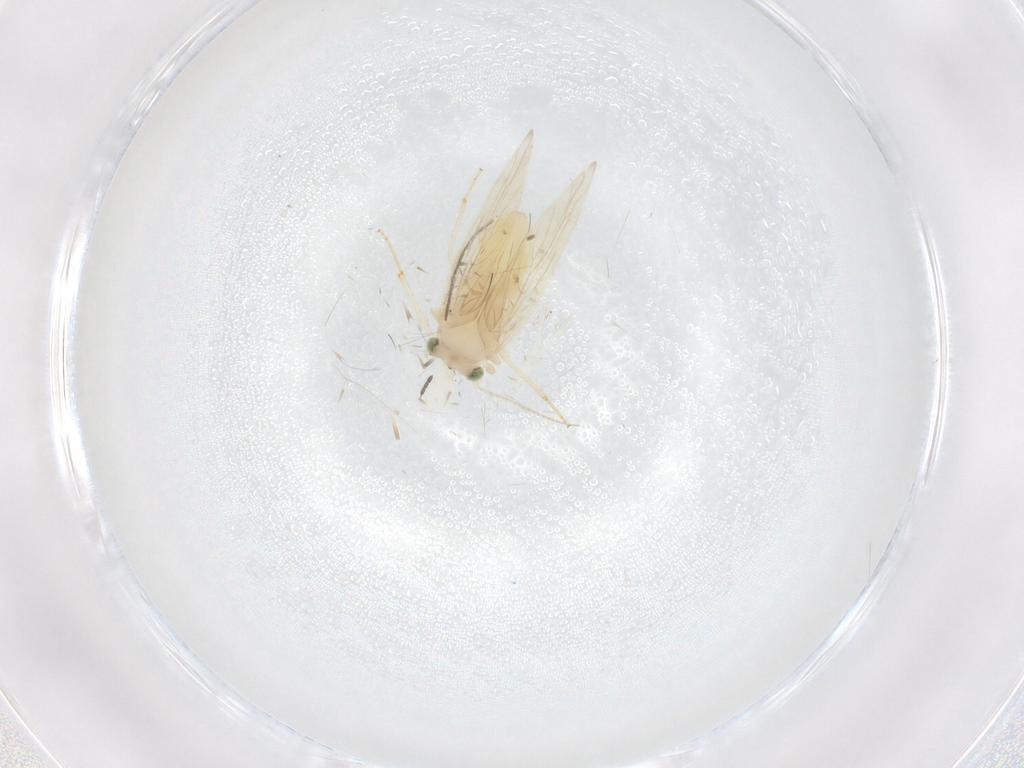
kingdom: Animalia
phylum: Arthropoda
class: Insecta
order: Psocodea
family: Lepidopsocidae
